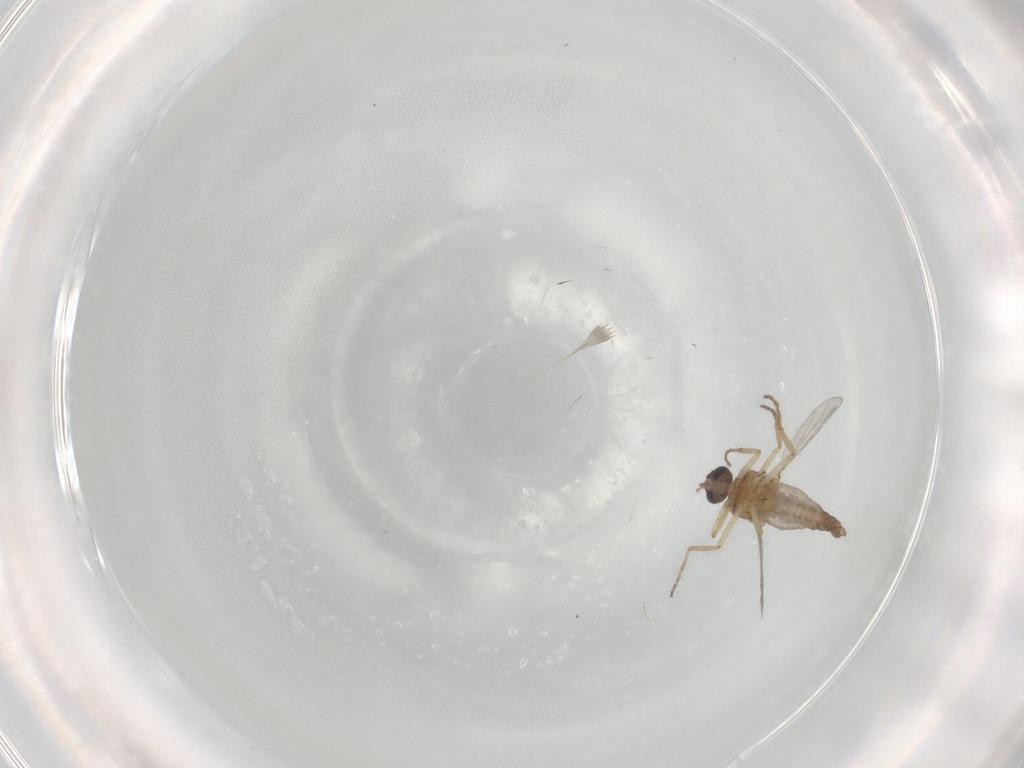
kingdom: Animalia
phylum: Arthropoda
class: Insecta
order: Diptera
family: Ceratopogonidae
